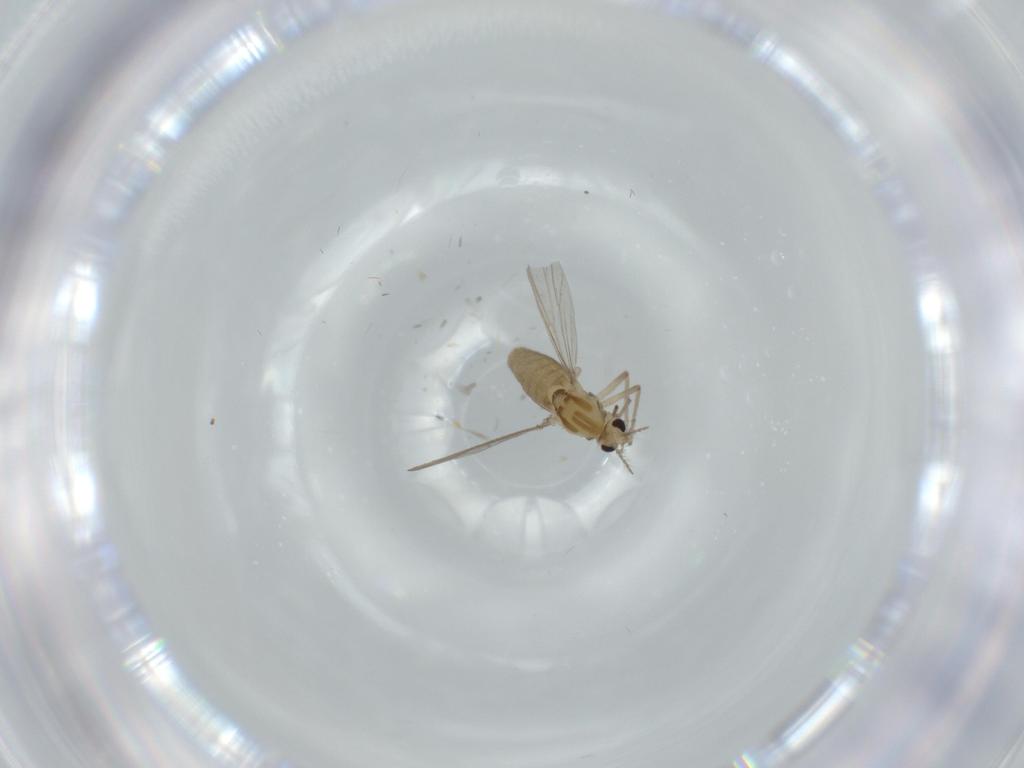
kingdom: Animalia
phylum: Arthropoda
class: Insecta
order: Diptera
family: Chironomidae
